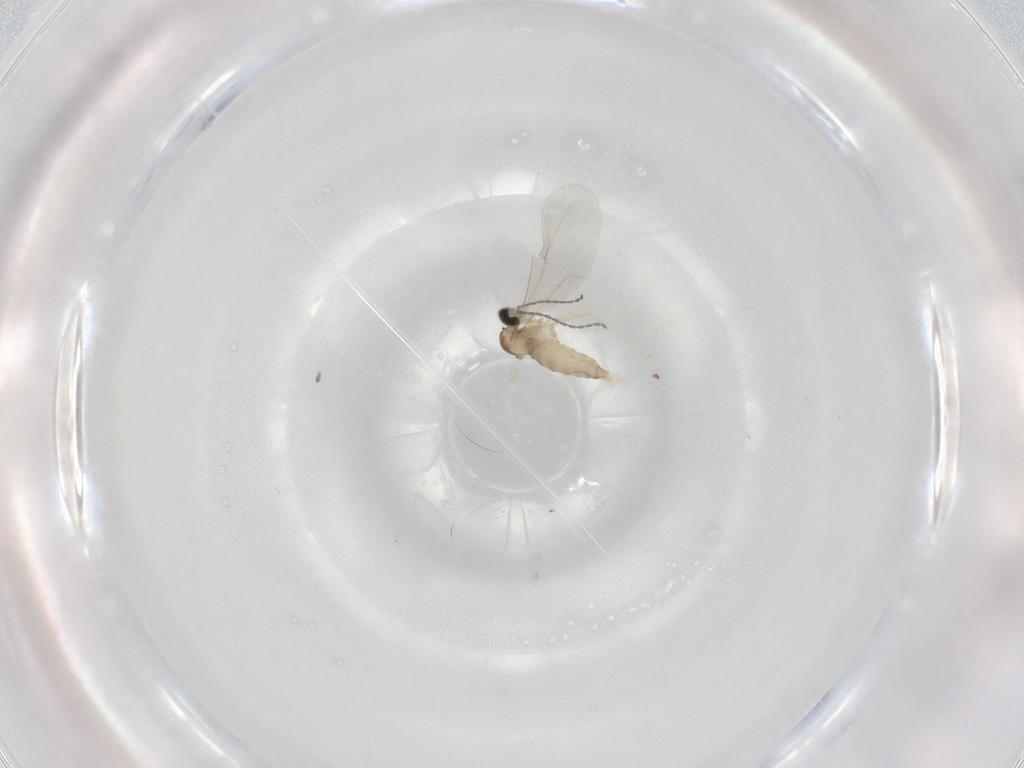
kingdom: Animalia
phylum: Arthropoda
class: Insecta
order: Diptera
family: Cecidomyiidae
